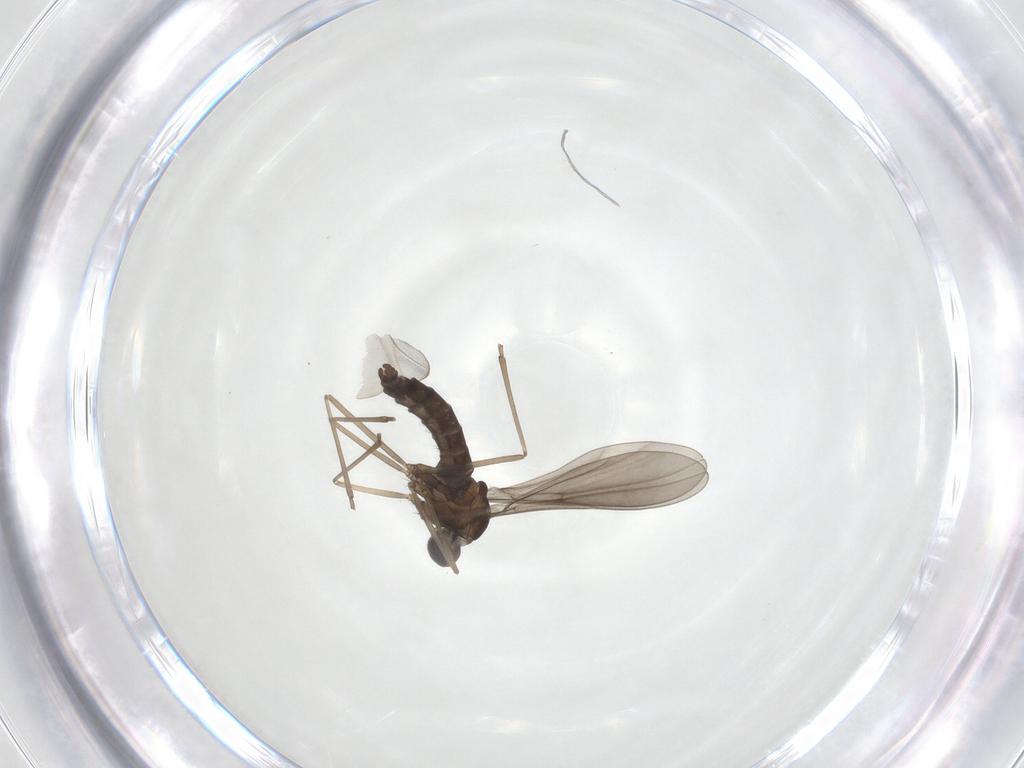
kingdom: Animalia
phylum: Arthropoda
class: Insecta
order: Diptera
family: Cecidomyiidae
